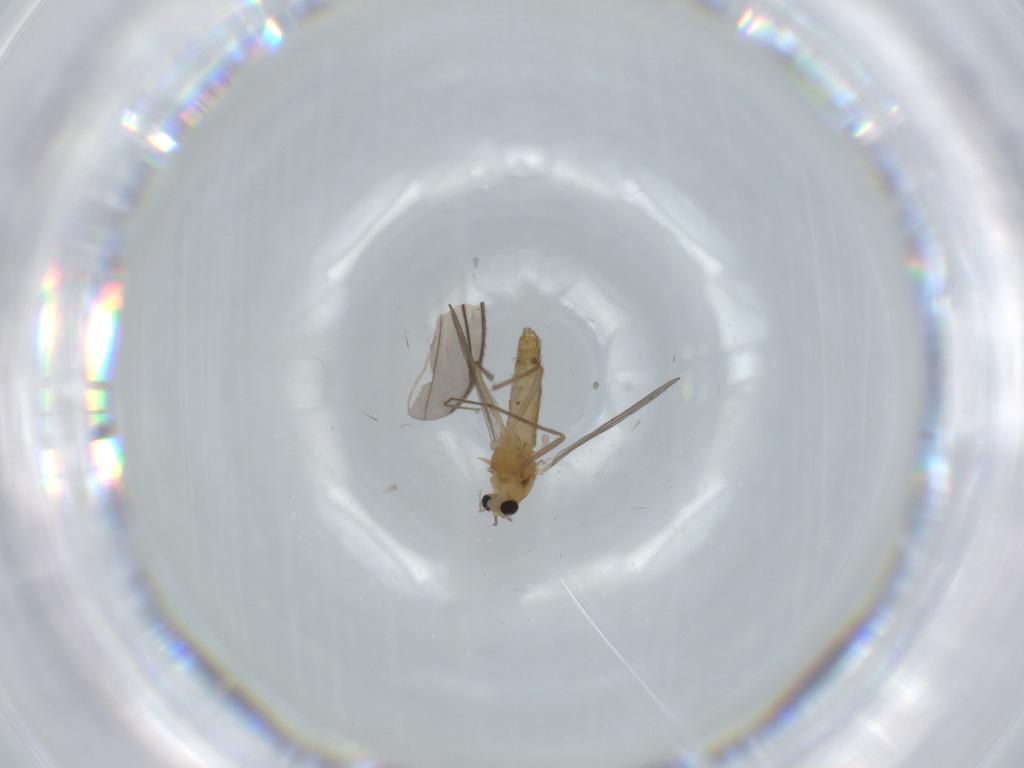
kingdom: Animalia
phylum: Arthropoda
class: Insecta
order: Diptera
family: Chironomidae
